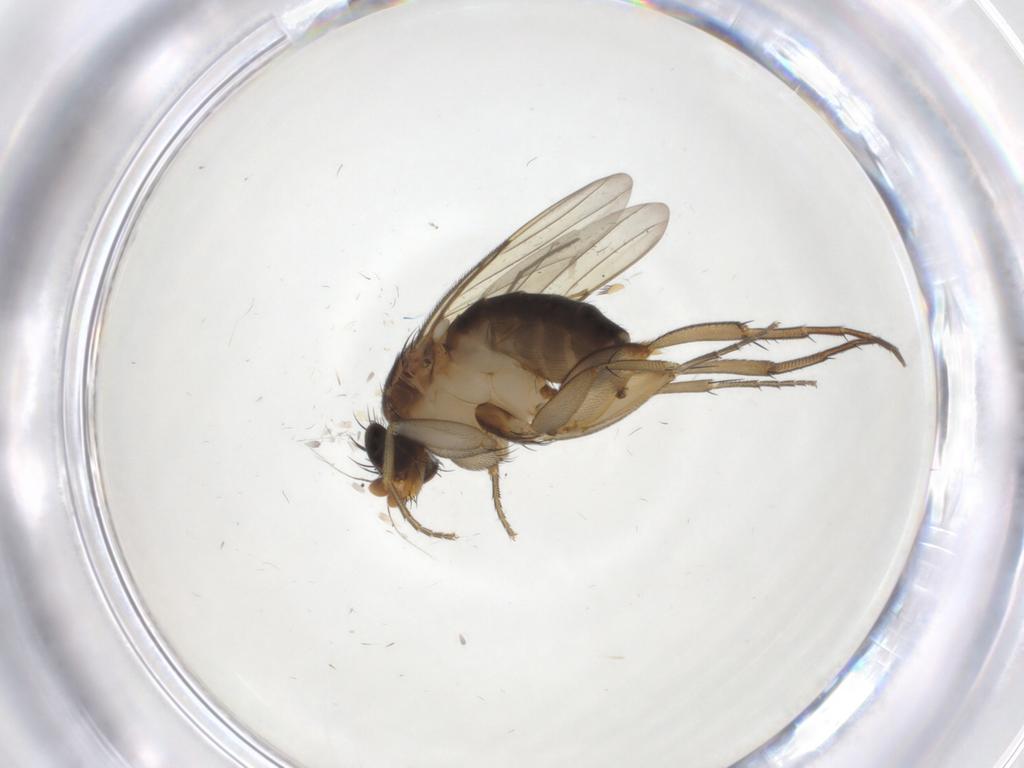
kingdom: Animalia
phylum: Arthropoda
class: Insecta
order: Diptera
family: Phoridae
